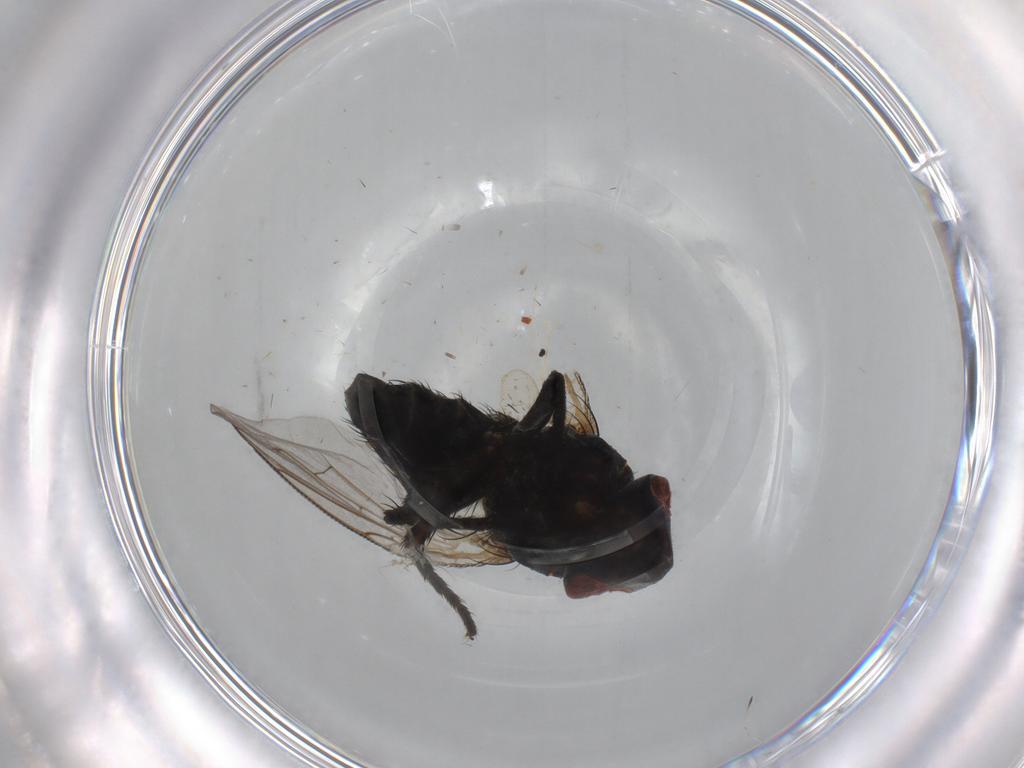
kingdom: Animalia
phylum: Arthropoda
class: Insecta
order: Diptera
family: Sarcophagidae
